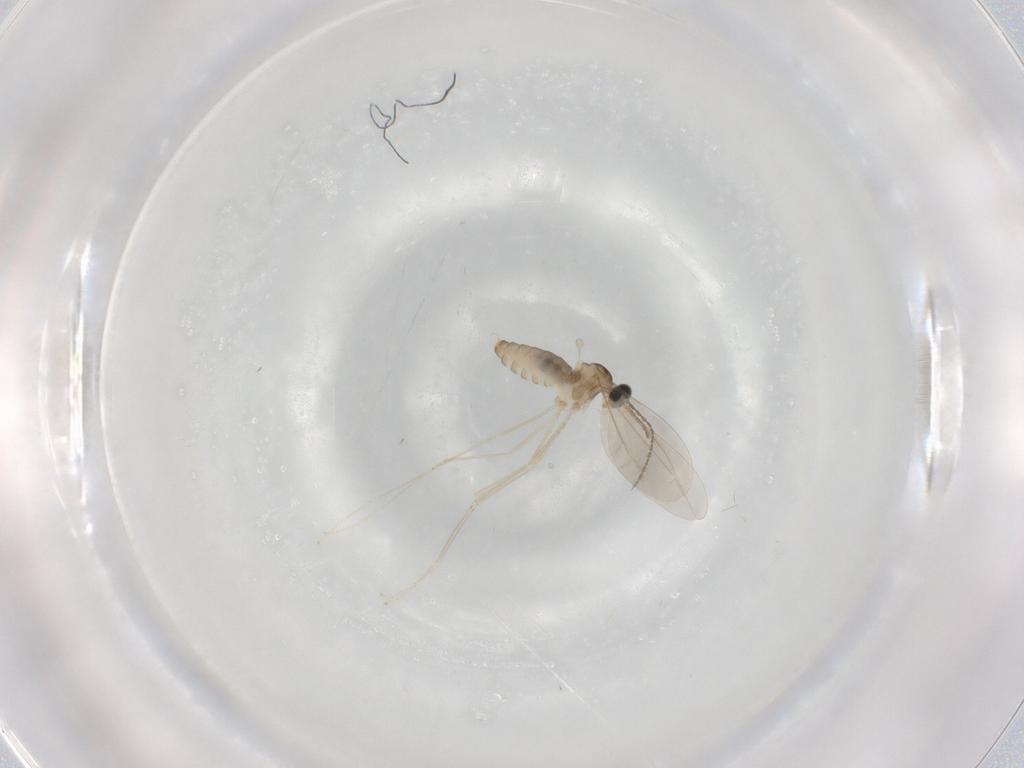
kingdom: Animalia
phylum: Arthropoda
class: Insecta
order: Diptera
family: Cecidomyiidae
